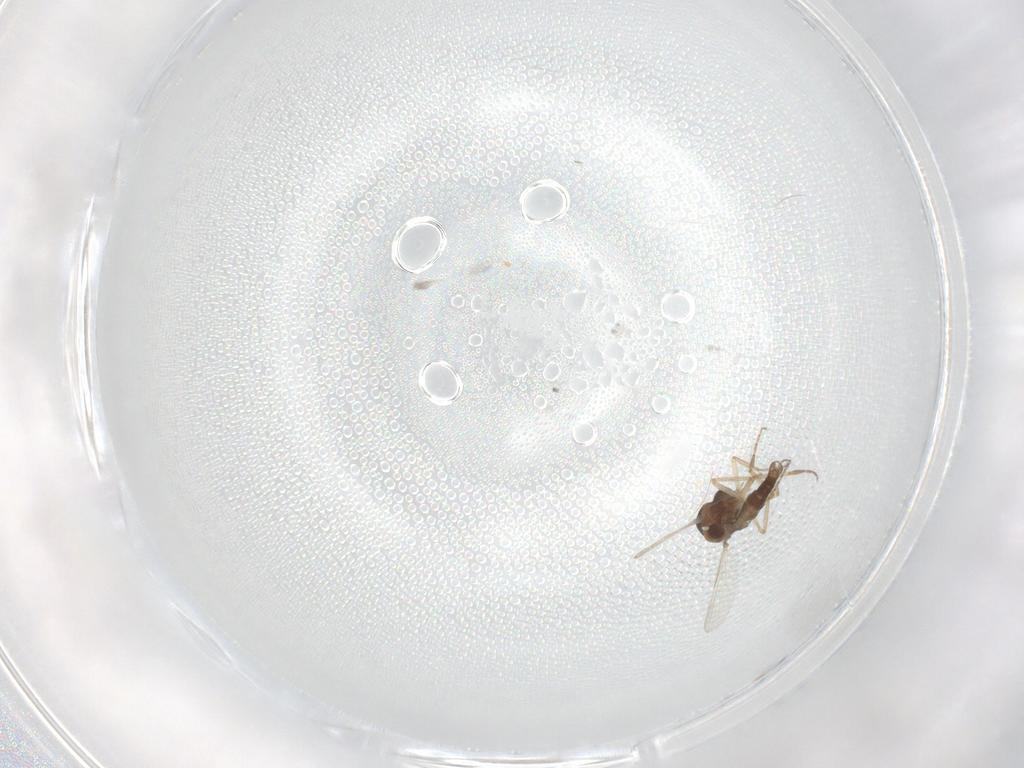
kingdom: Animalia
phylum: Arthropoda
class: Insecta
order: Diptera
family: Ceratopogonidae
